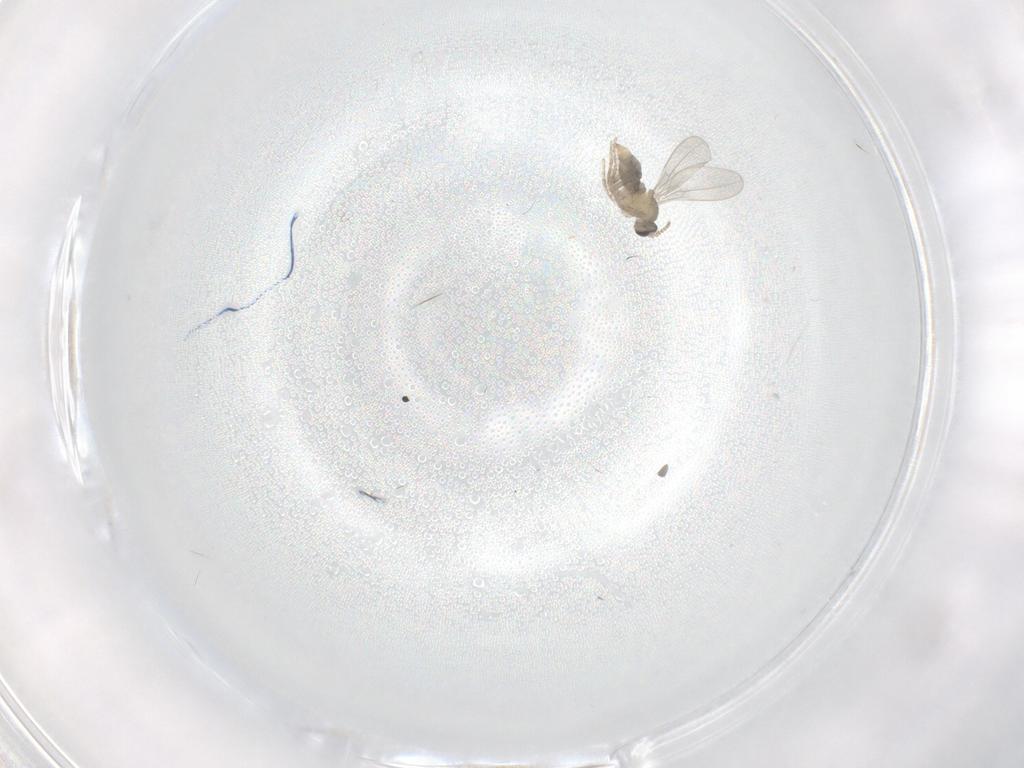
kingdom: Animalia
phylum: Arthropoda
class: Insecta
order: Diptera
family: Cecidomyiidae
